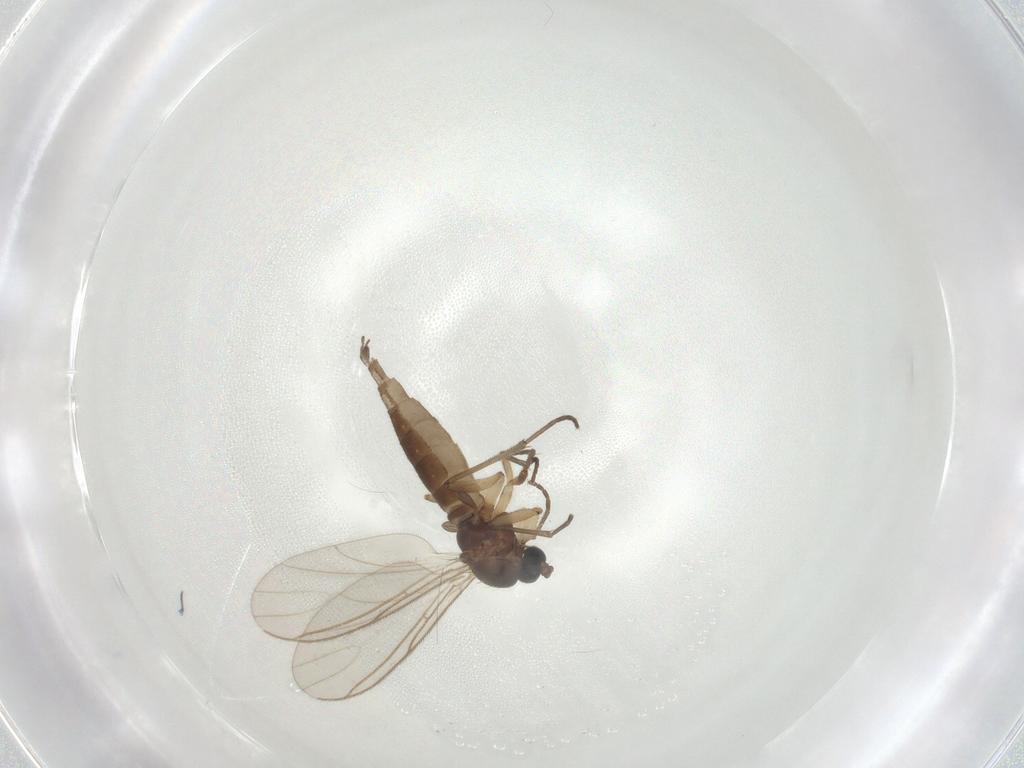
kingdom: Animalia
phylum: Arthropoda
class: Insecta
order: Diptera
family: Sciaridae
